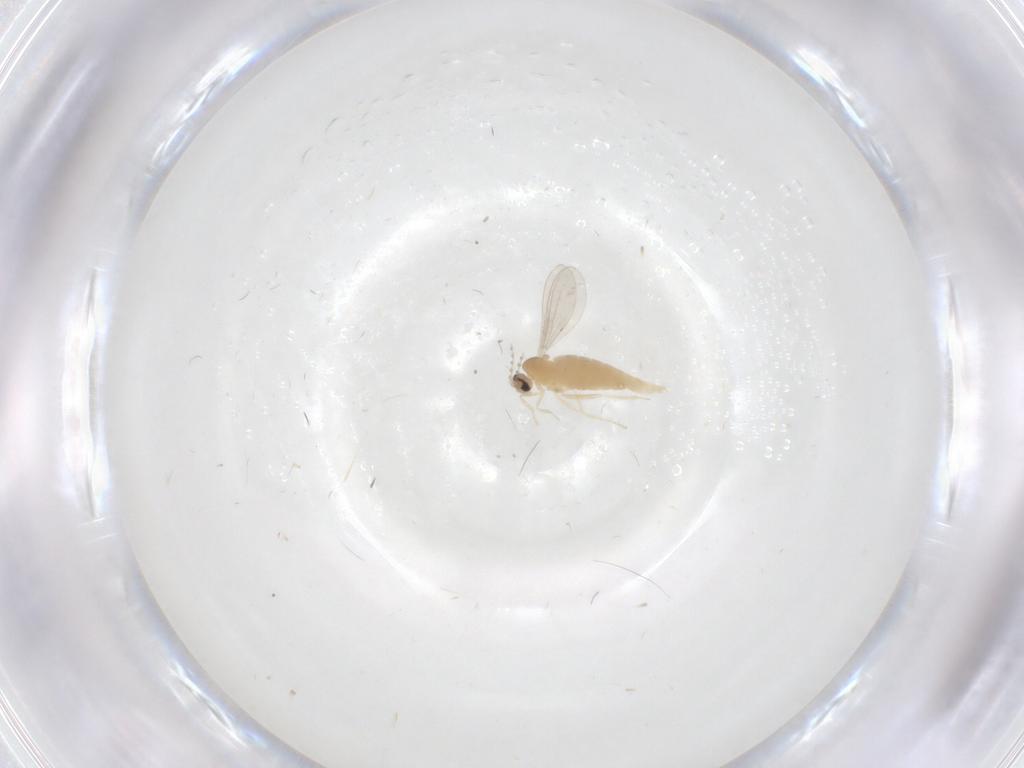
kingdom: Animalia
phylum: Arthropoda
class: Insecta
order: Diptera
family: Cecidomyiidae
